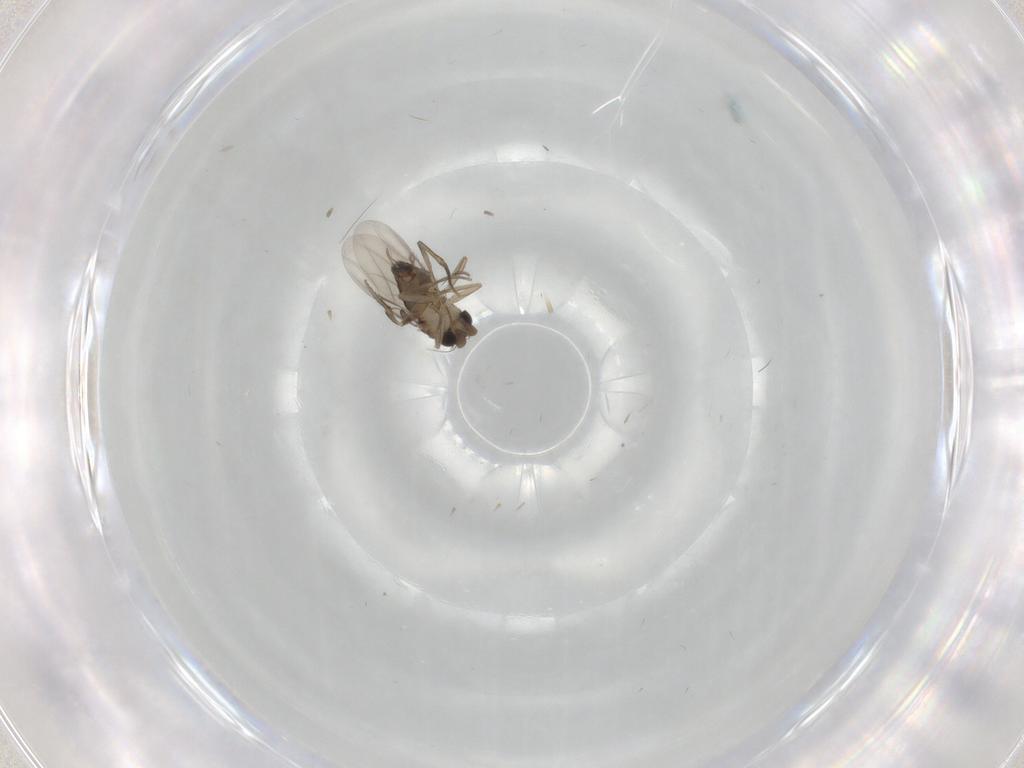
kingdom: Animalia
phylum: Arthropoda
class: Insecta
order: Diptera
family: Phoridae
